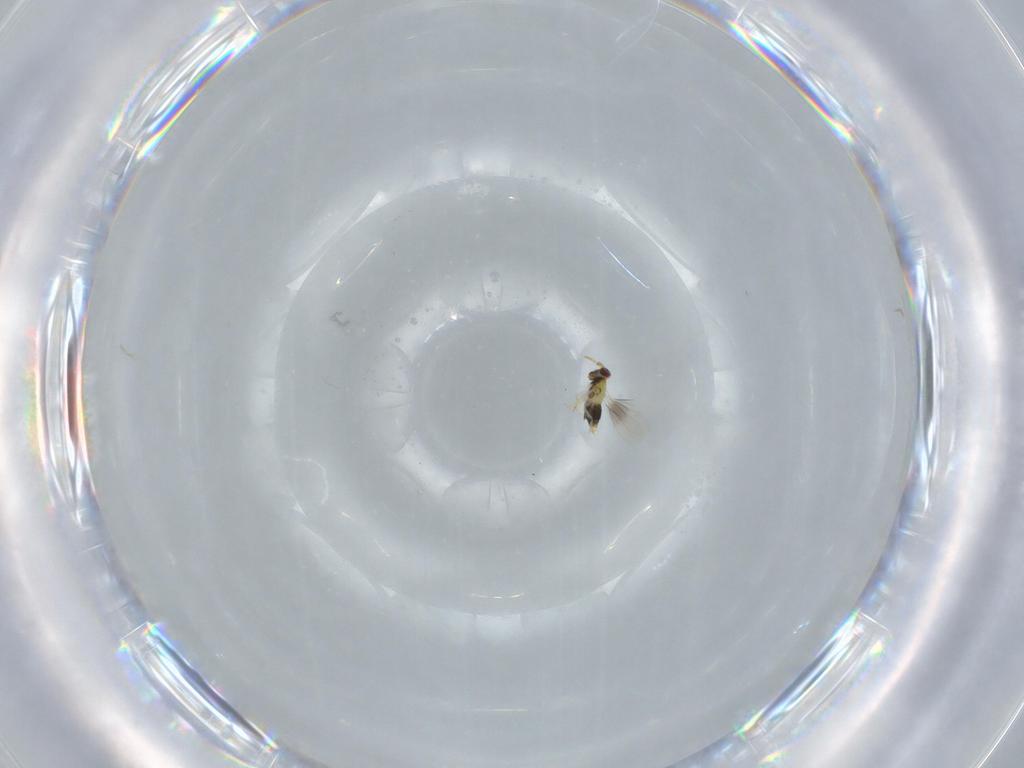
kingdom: Animalia
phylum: Arthropoda
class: Insecta
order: Hymenoptera
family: Aphelinidae
